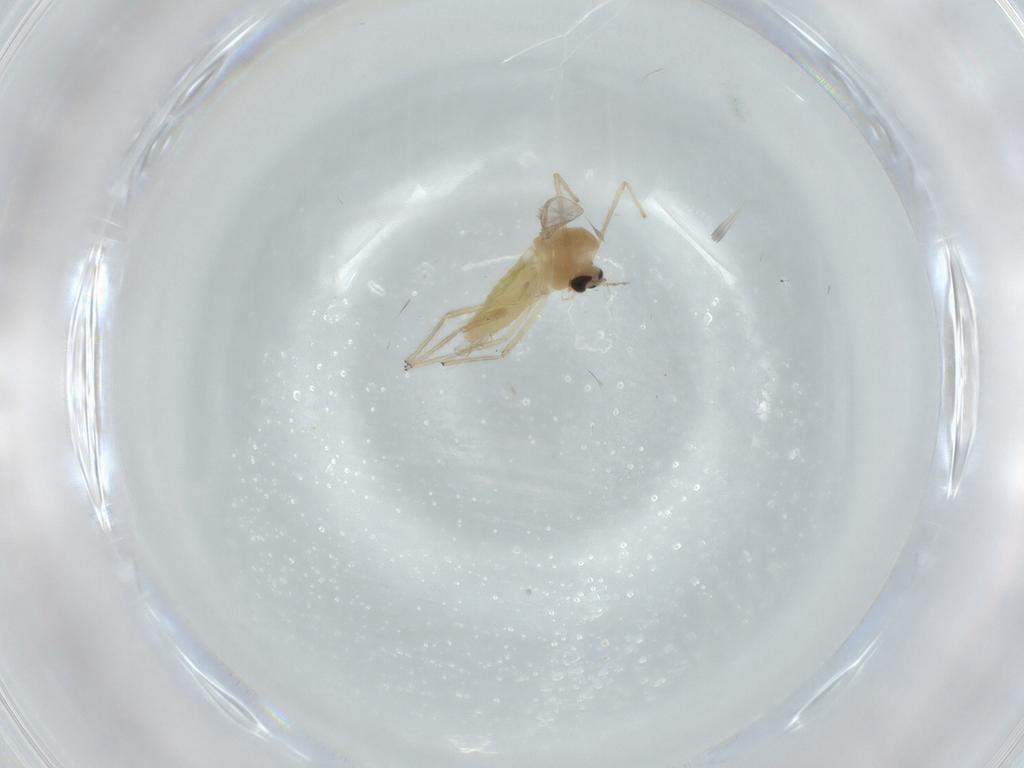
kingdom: Animalia
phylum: Arthropoda
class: Insecta
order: Diptera
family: Chironomidae
